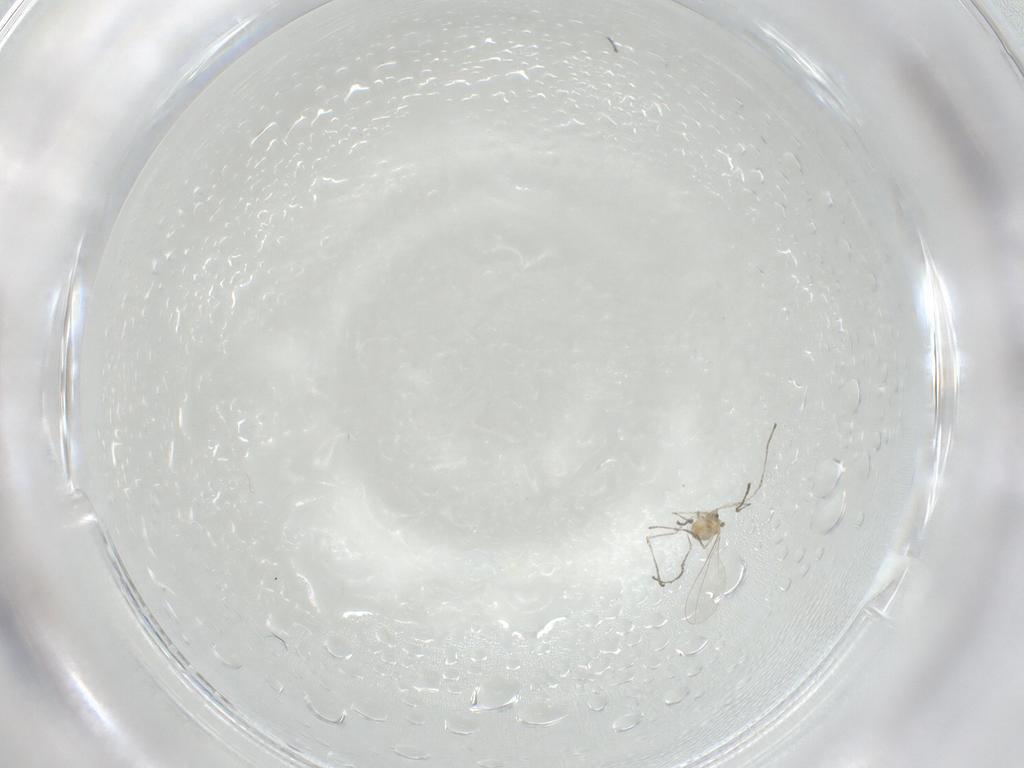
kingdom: Animalia
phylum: Arthropoda
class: Insecta
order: Diptera
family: Cecidomyiidae
